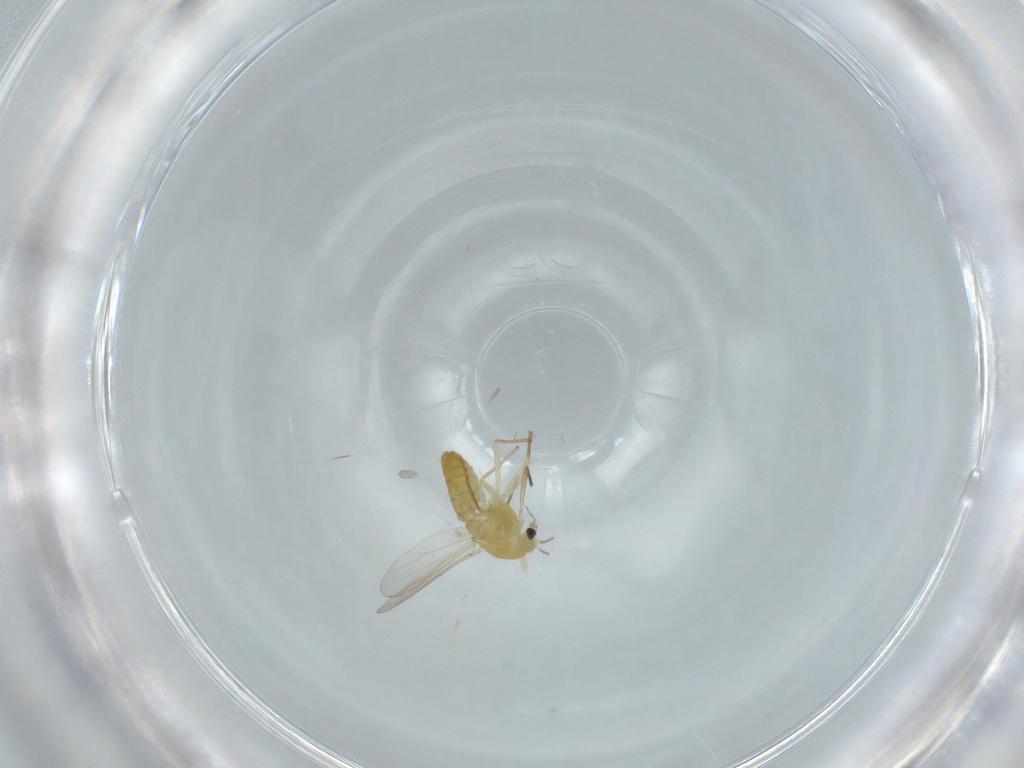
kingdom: Animalia
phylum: Arthropoda
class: Insecta
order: Diptera
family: Chironomidae
